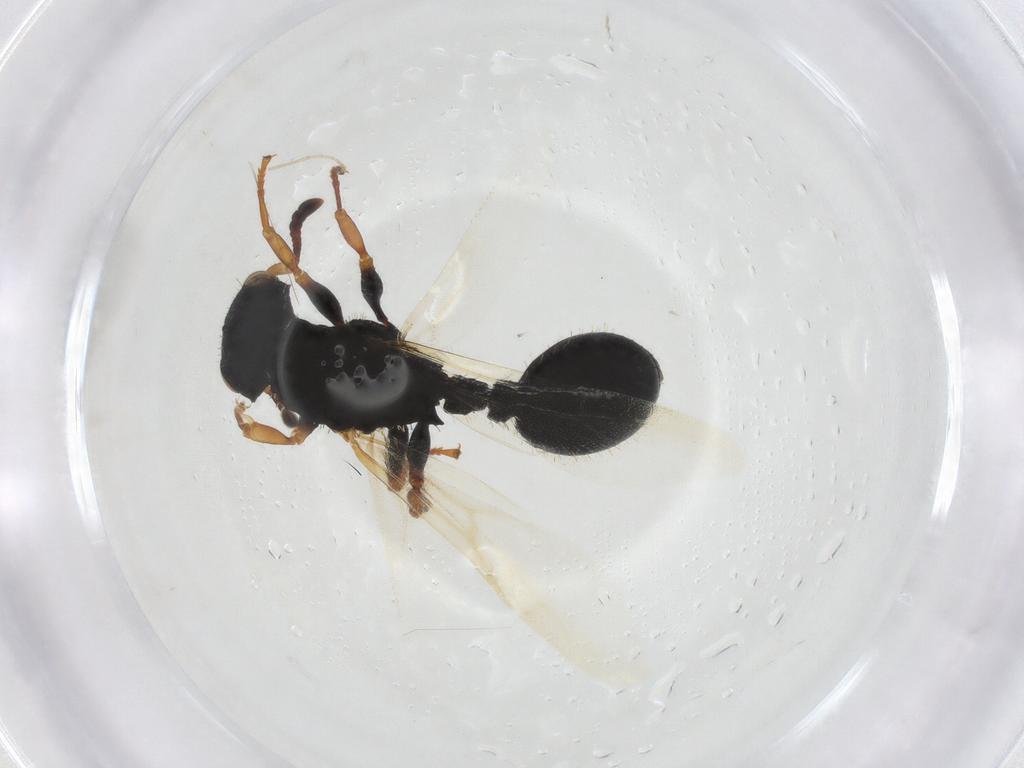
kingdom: Animalia
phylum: Arthropoda
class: Insecta
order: Hymenoptera
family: Formicidae
